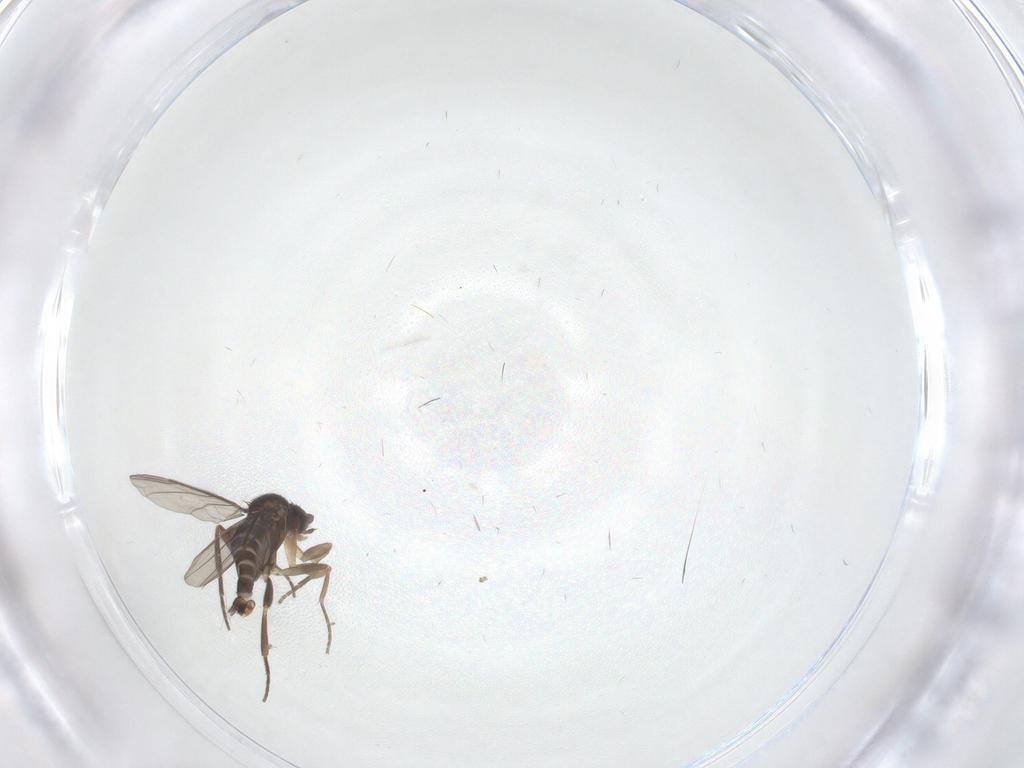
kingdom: Animalia
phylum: Arthropoda
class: Insecta
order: Diptera
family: Phoridae
